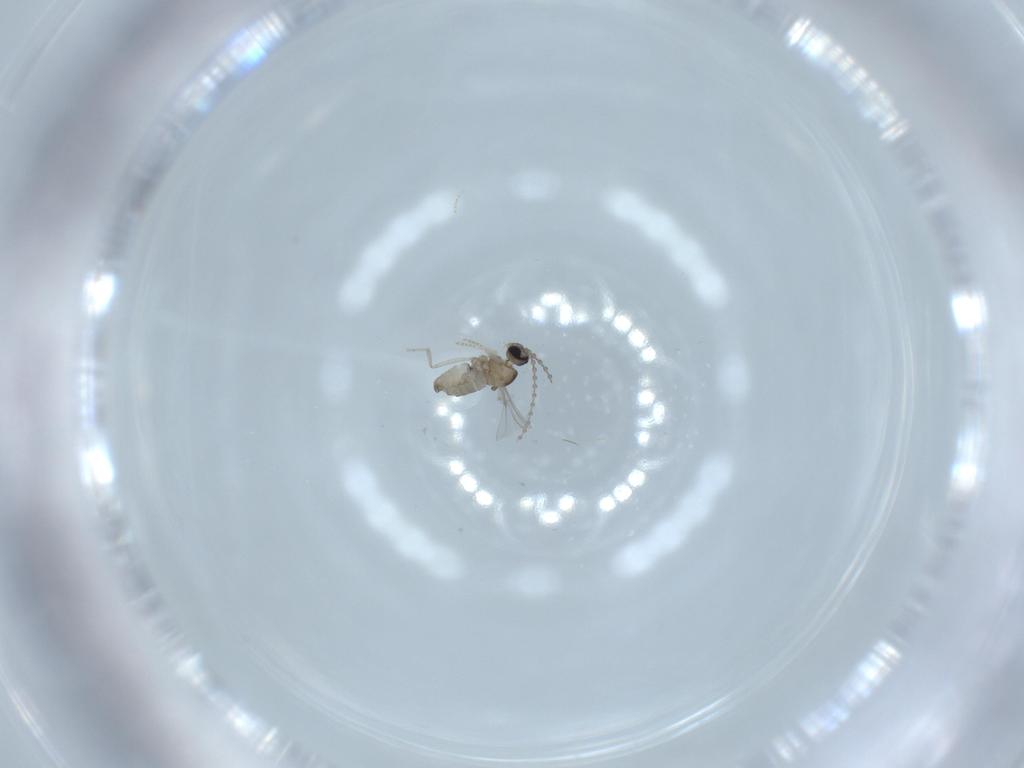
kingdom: Animalia
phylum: Arthropoda
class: Insecta
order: Diptera
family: Cecidomyiidae
